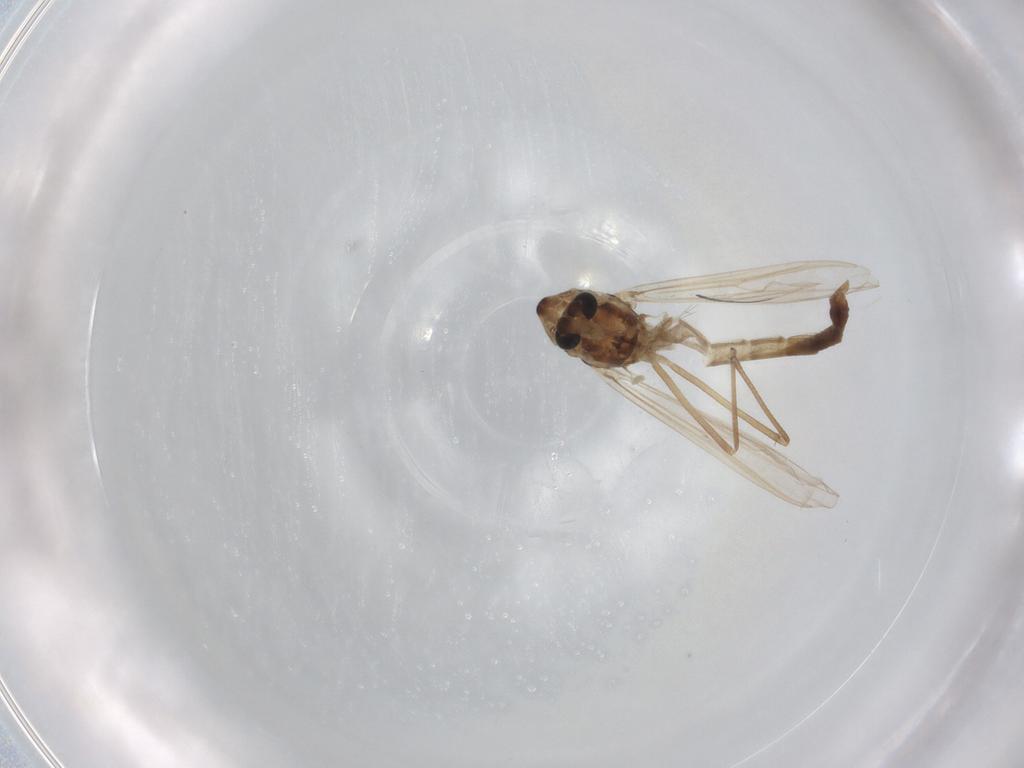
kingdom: Animalia
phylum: Arthropoda
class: Insecta
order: Diptera
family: Chironomidae
